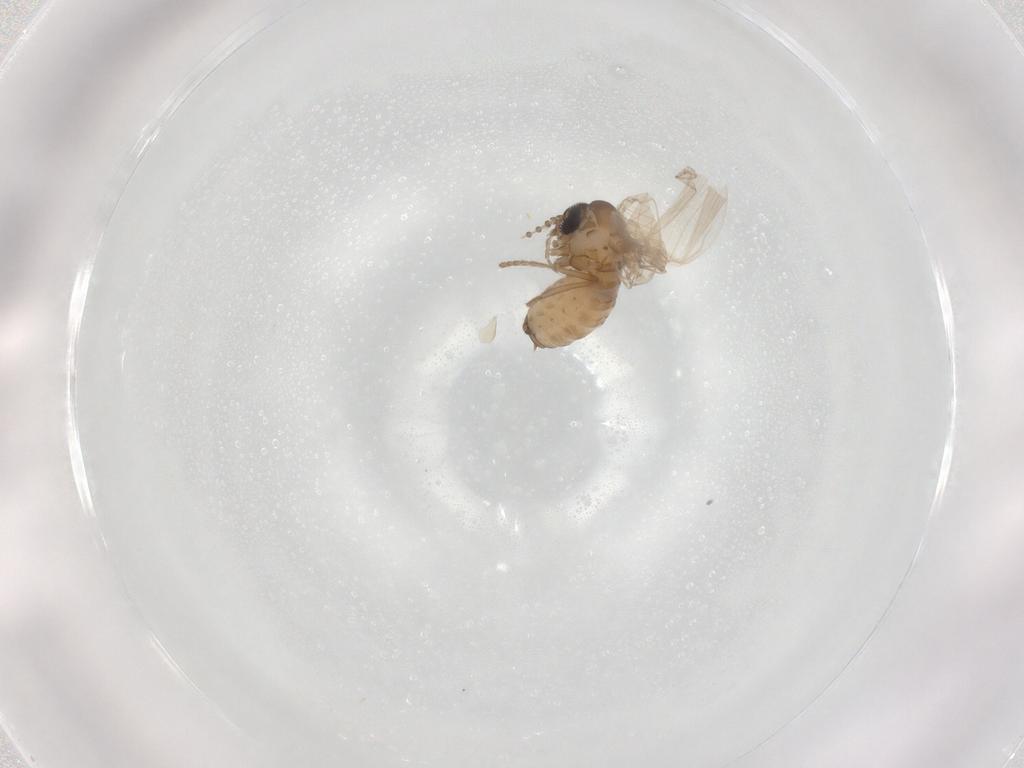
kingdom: Animalia
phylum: Arthropoda
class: Insecta
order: Diptera
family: Psychodidae
